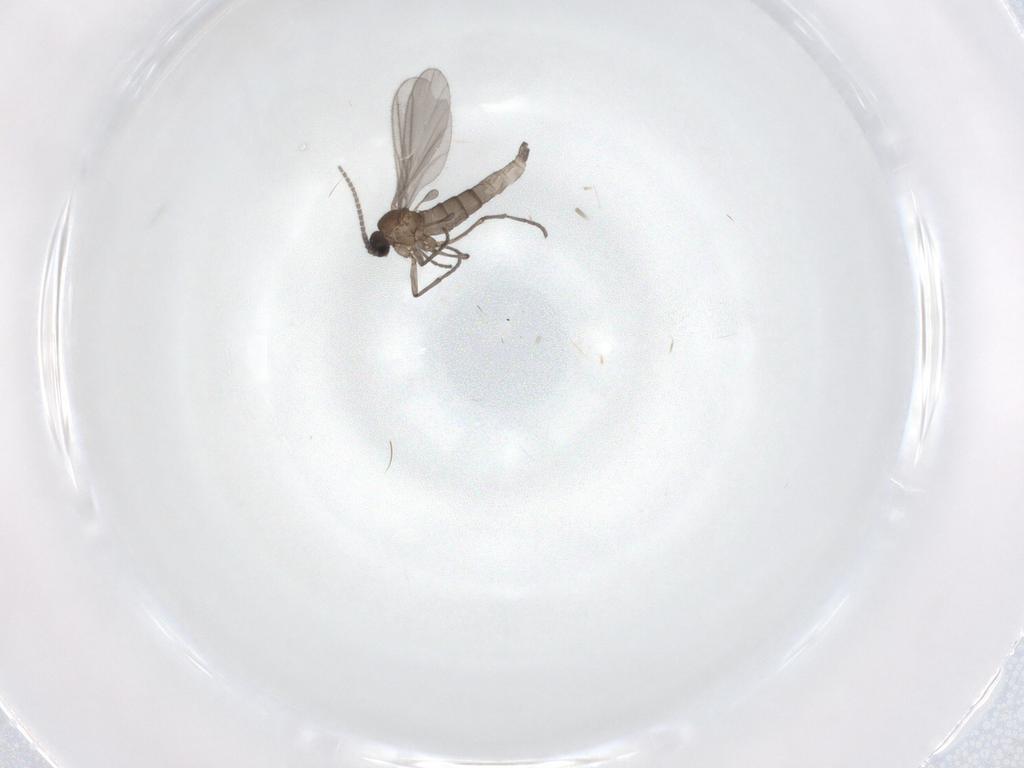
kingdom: Animalia
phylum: Arthropoda
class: Insecta
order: Diptera
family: Sciaridae
